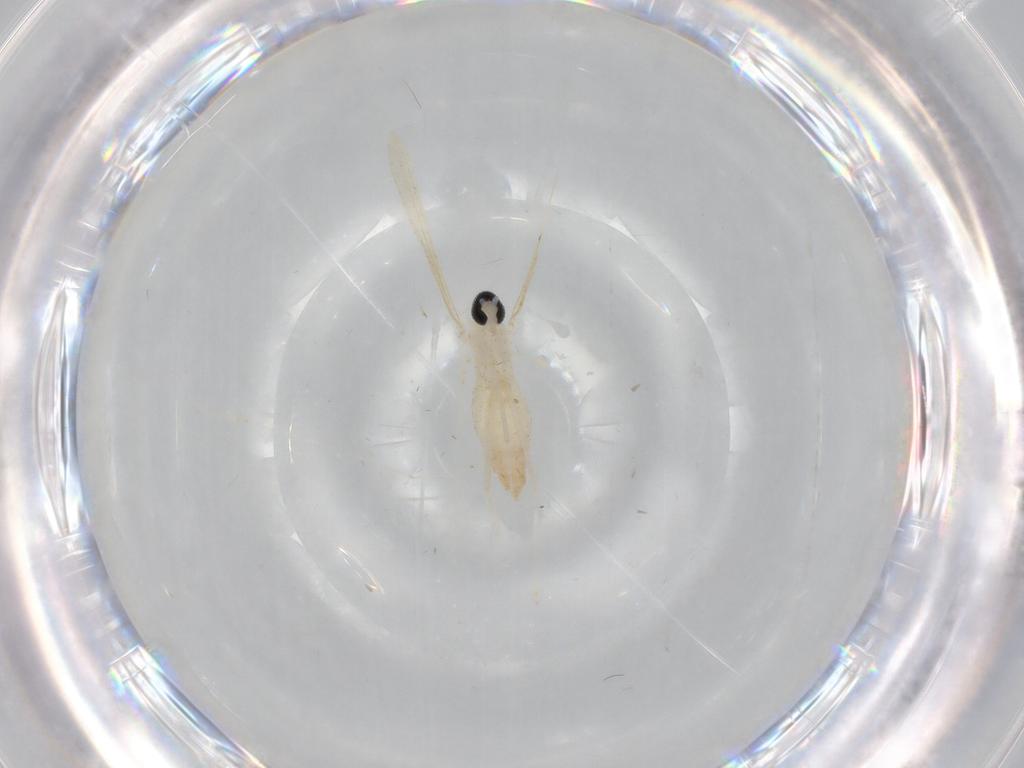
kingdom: Animalia
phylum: Arthropoda
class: Insecta
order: Diptera
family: Cecidomyiidae
